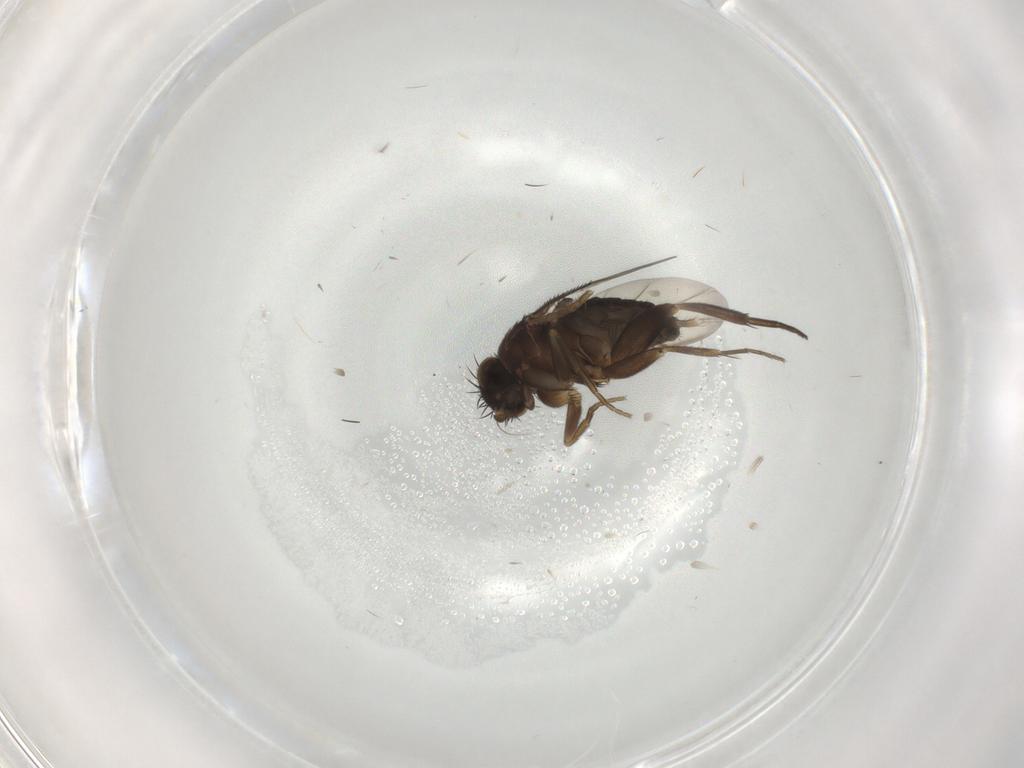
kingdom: Animalia
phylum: Arthropoda
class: Insecta
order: Diptera
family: Phoridae
